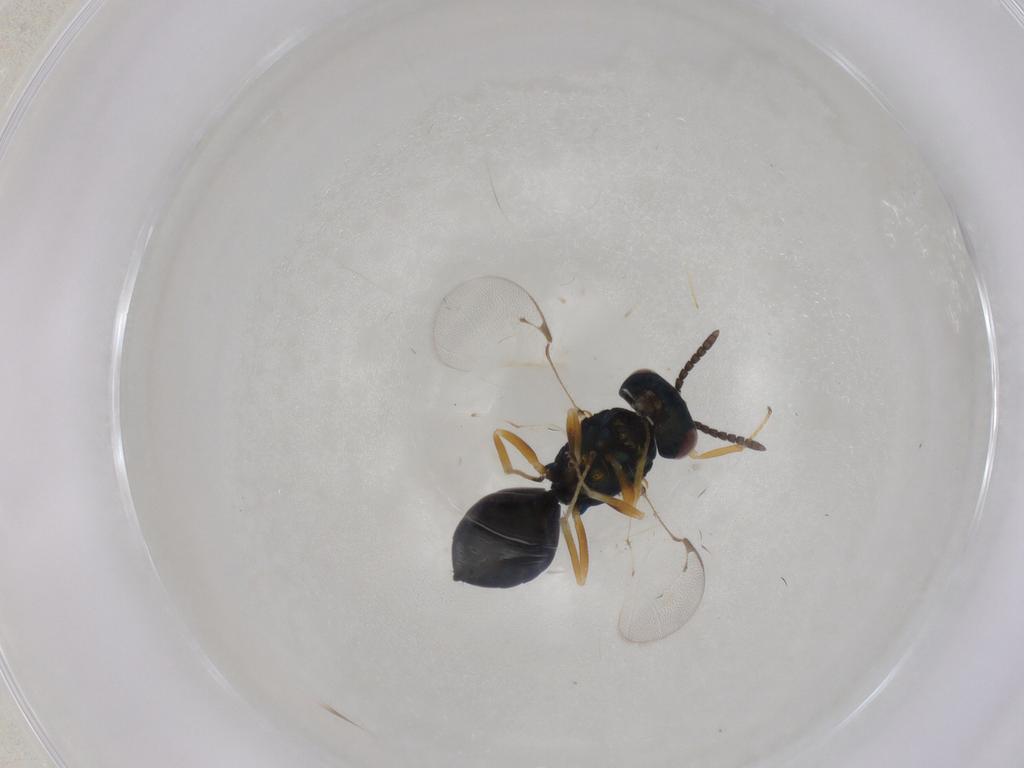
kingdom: Animalia
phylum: Arthropoda
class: Insecta
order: Hymenoptera
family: Pteromalidae
